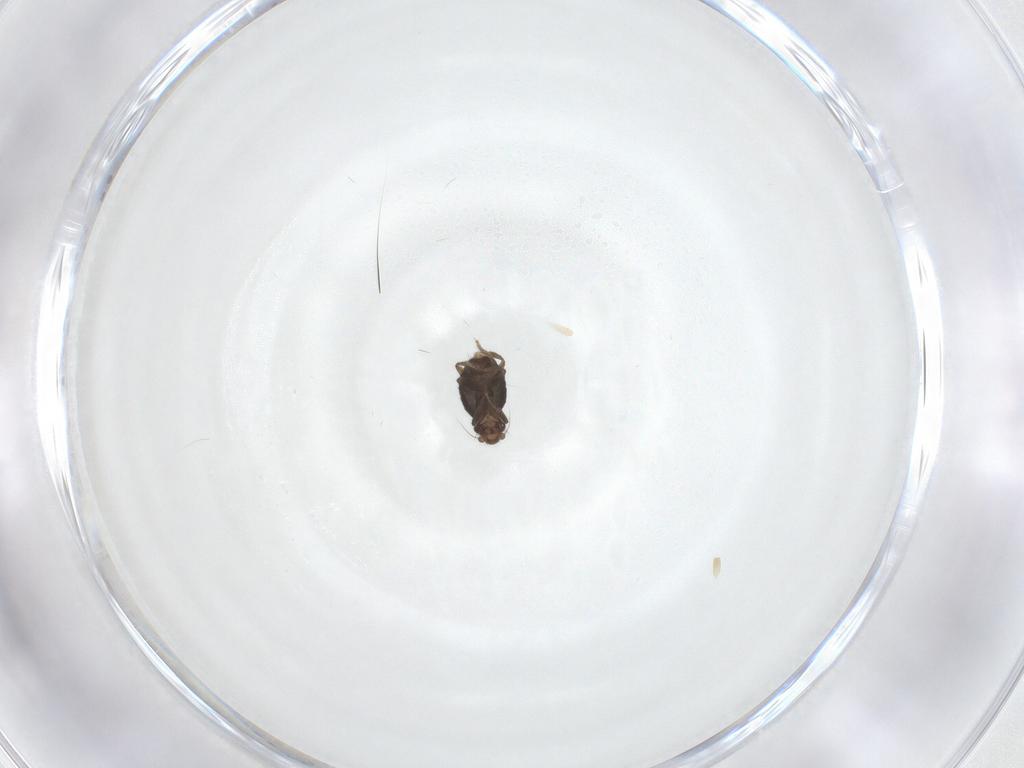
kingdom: Animalia
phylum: Arthropoda
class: Insecta
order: Diptera
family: Phoridae
